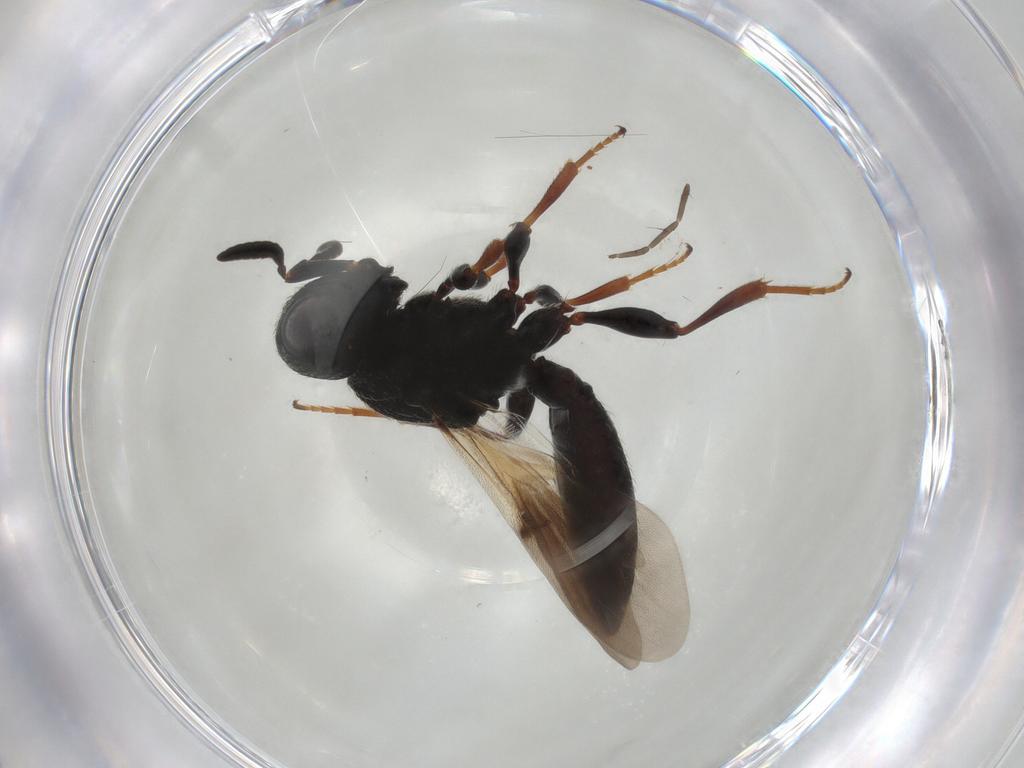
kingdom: Animalia
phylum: Arthropoda
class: Insecta
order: Hymenoptera
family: Scelionidae
